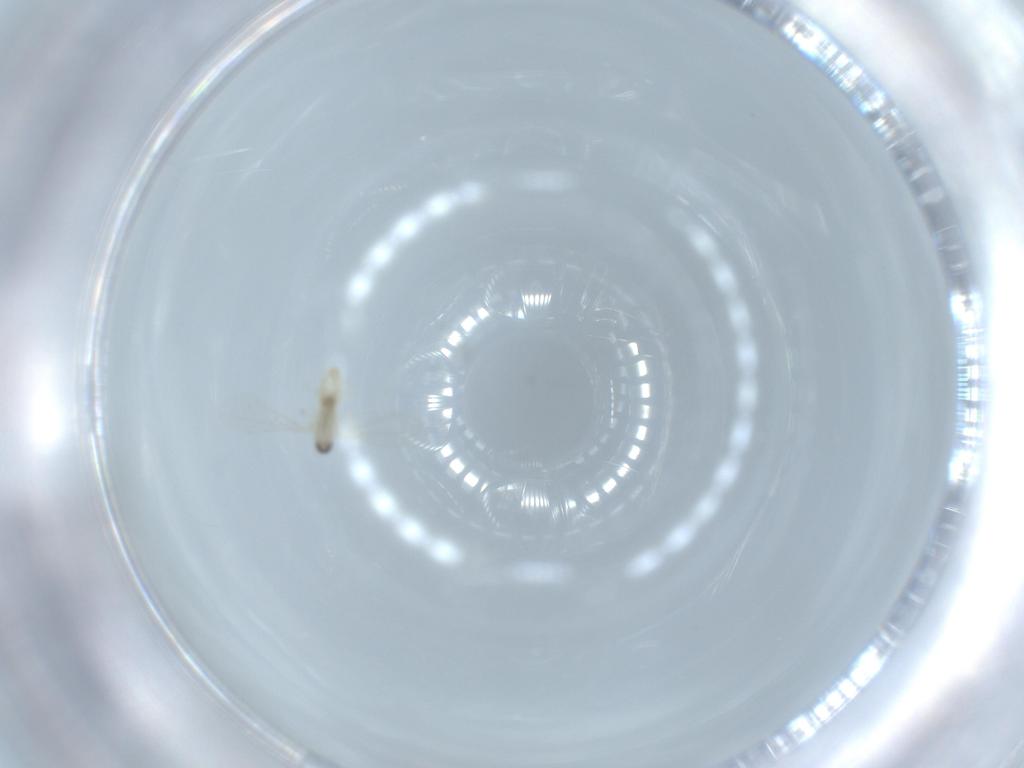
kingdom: Animalia
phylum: Arthropoda
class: Insecta
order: Diptera
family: Cecidomyiidae
